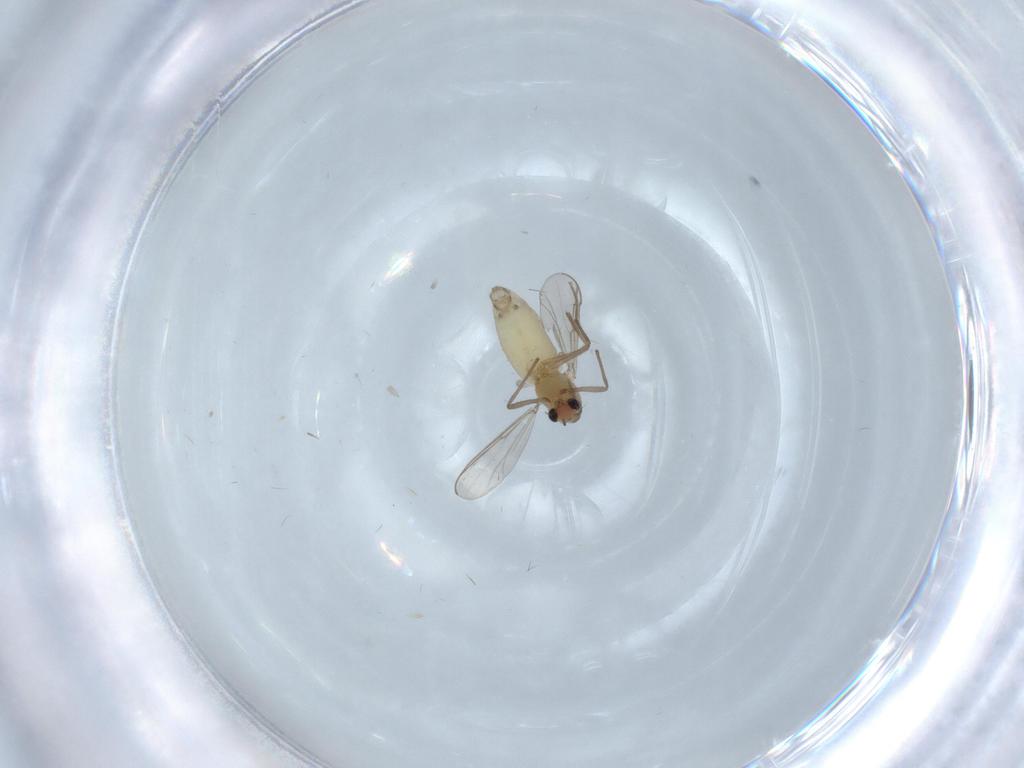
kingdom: Animalia
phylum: Arthropoda
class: Insecta
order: Diptera
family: Chironomidae
